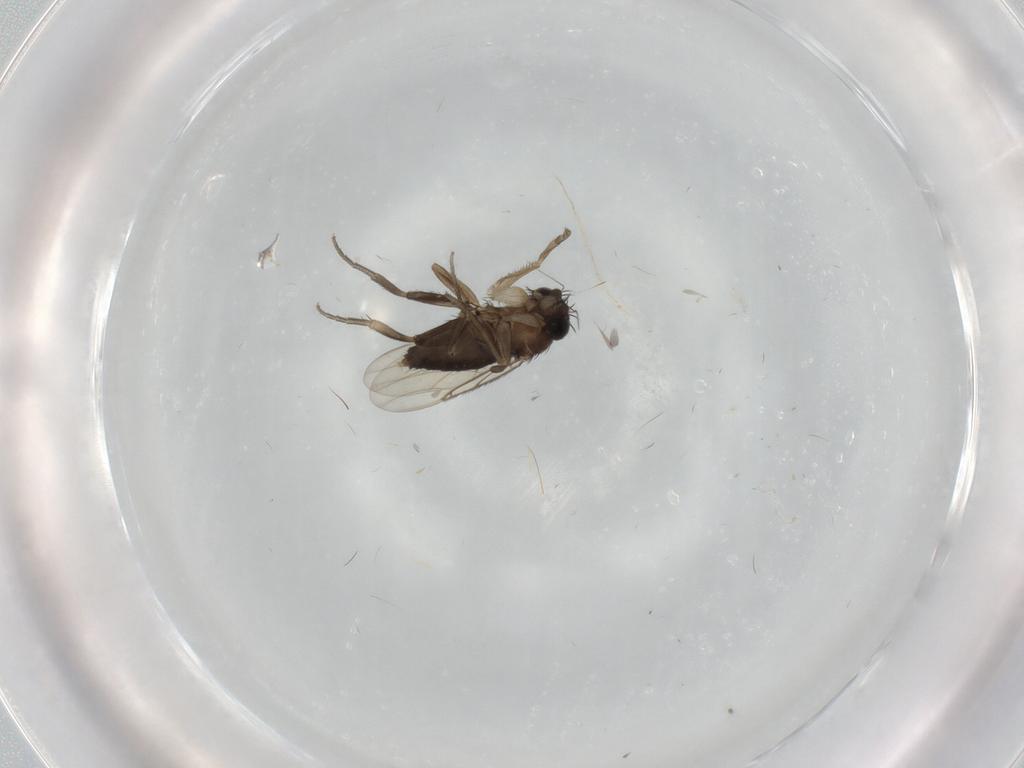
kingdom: Animalia
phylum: Arthropoda
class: Insecta
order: Diptera
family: Phoridae
